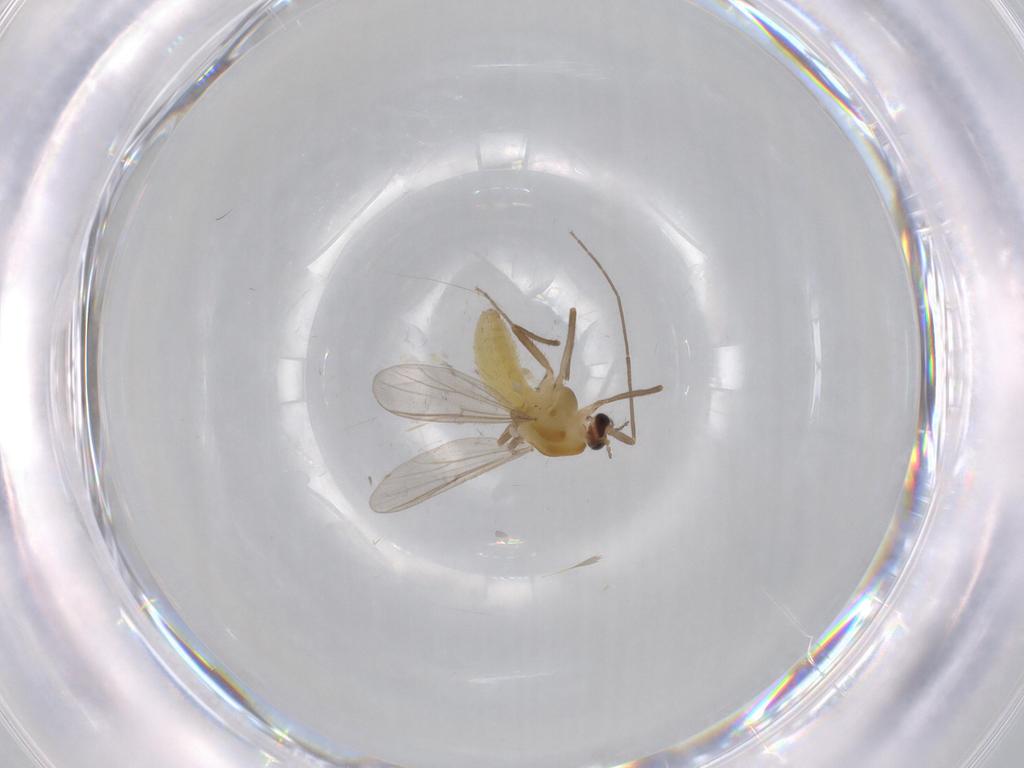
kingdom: Animalia
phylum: Arthropoda
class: Insecta
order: Diptera
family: Chironomidae
